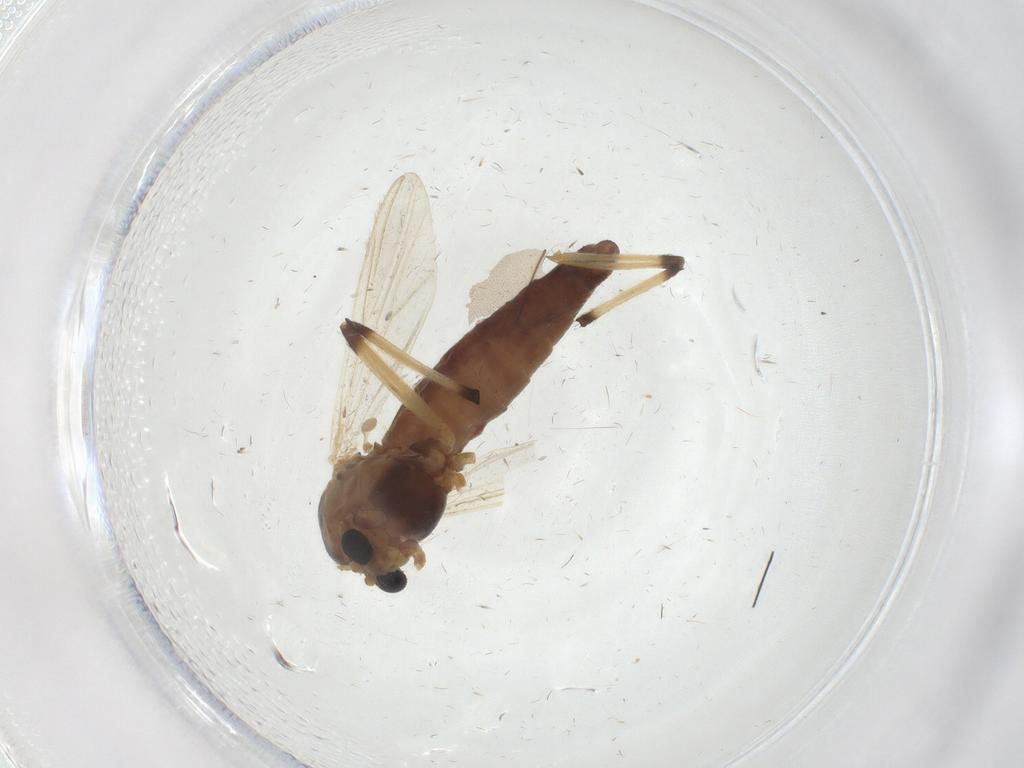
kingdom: Animalia
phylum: Arthropoda
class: Insecta
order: Diptera
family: Chironomidae
